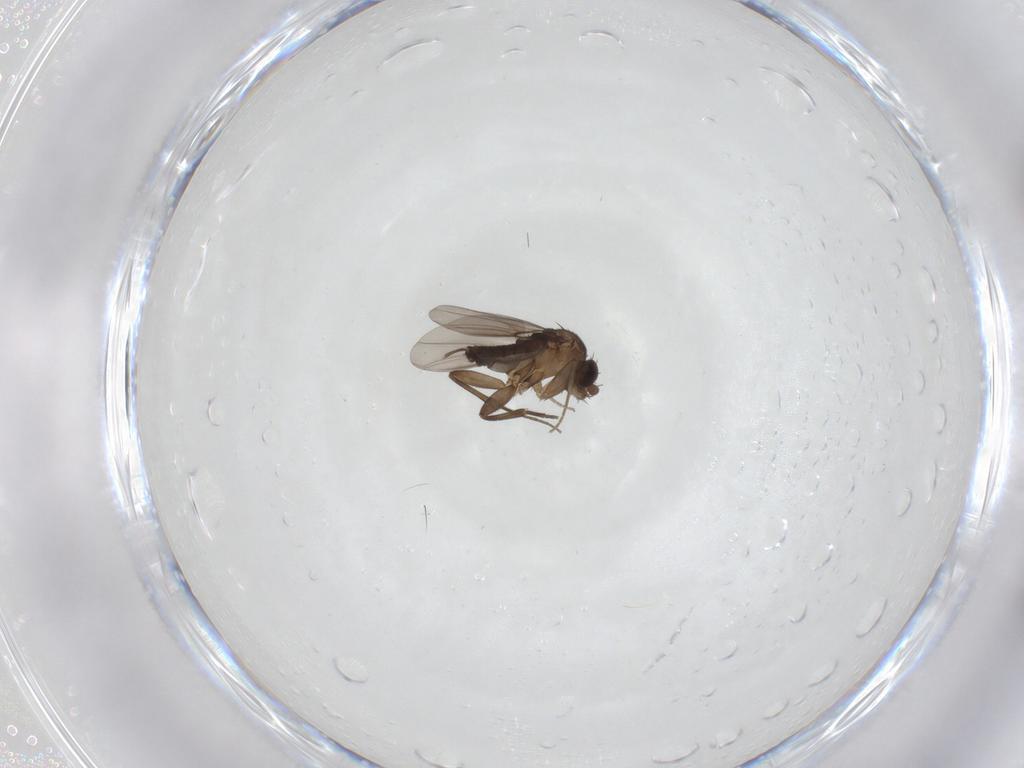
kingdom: Animalia
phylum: Arthropoda
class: Insecta
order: Diptera
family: Phoridae
